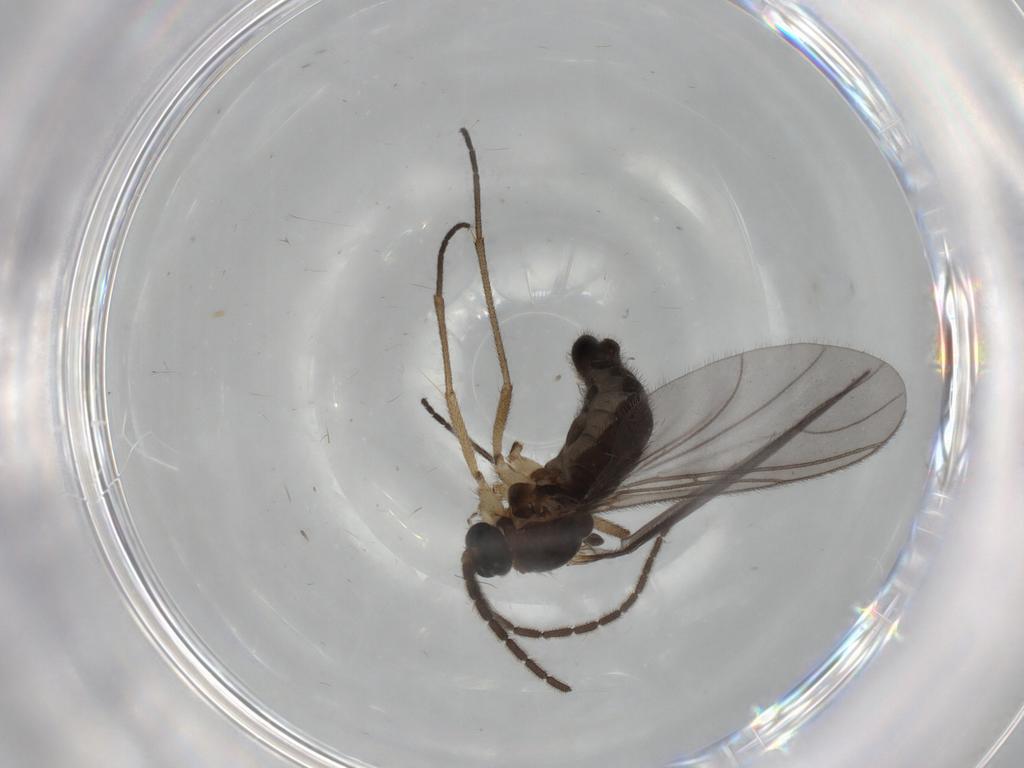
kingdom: Animalia
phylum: Arthropoda
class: Insecta
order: Diptera
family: Sciaridae
